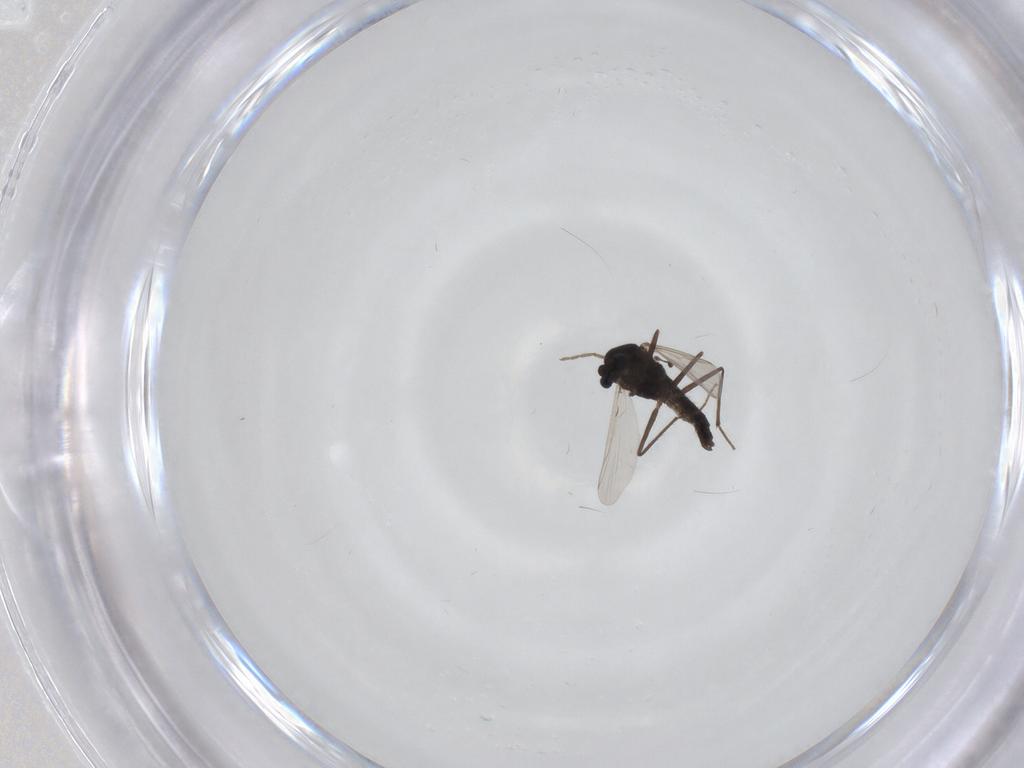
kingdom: Animalia
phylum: Arthropoda
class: Insecta
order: Diptera
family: Chironomidae
